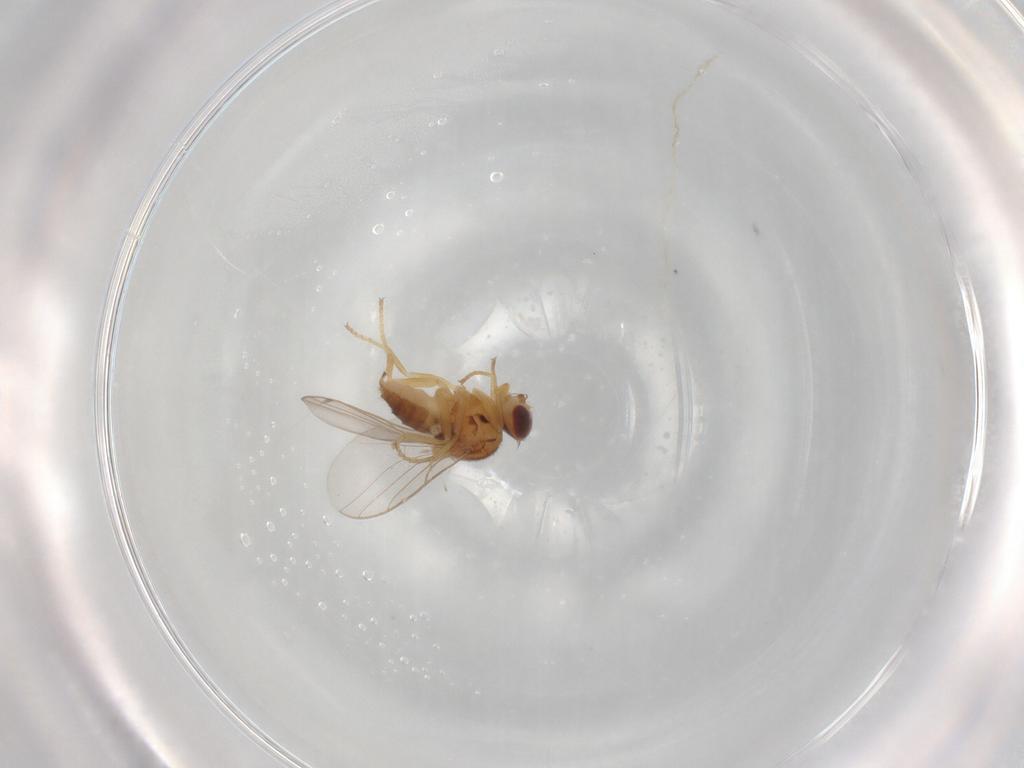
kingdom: Animalia
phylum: Arthropoda
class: Insecta
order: Diptera
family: Chloropidae
